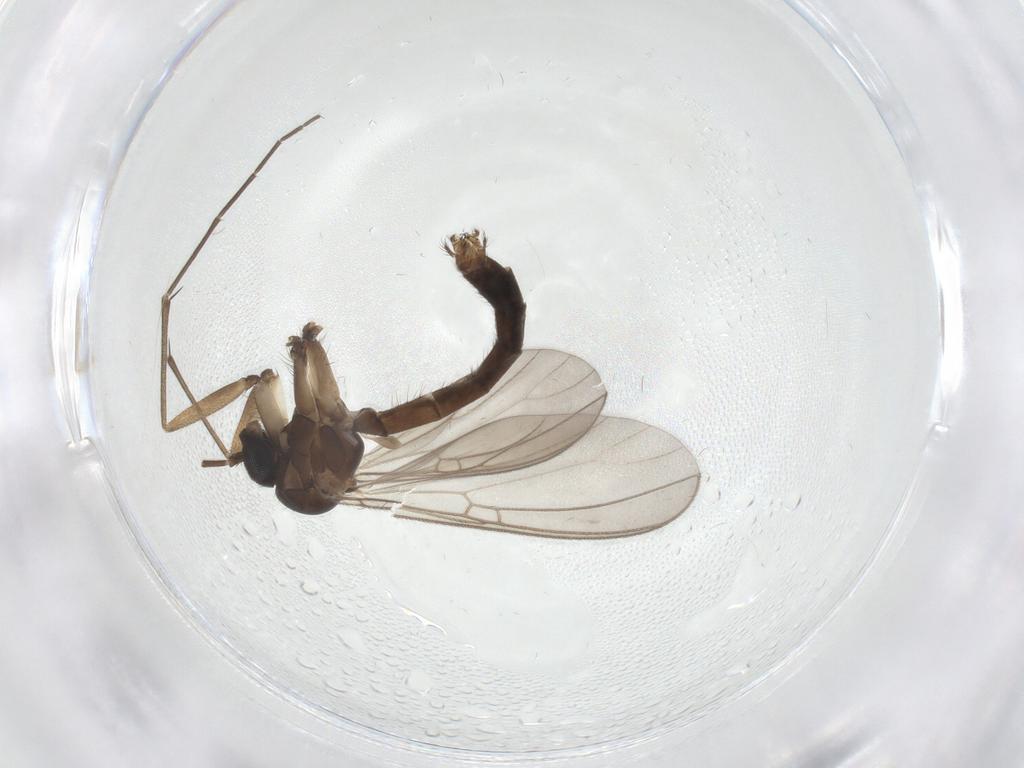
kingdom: Animalia
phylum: Arthropoda
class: Insecta
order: Diptera
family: Mycetophilidae
